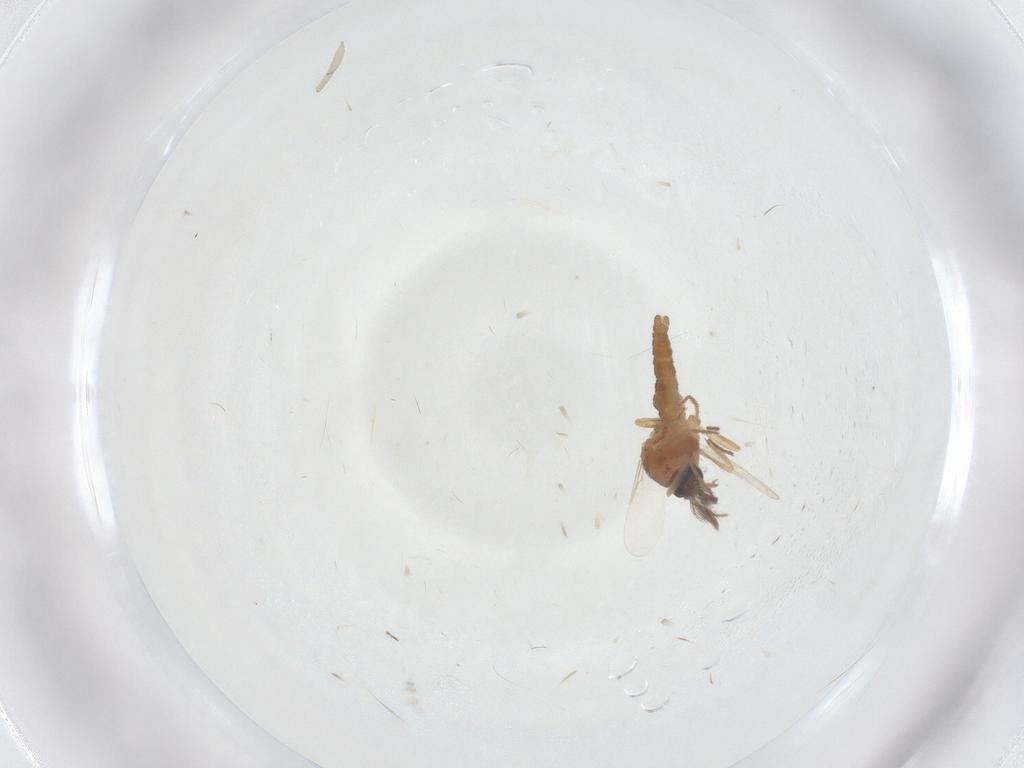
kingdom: Animalia
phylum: Arthropoda
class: Insecta
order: Diptera
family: Ceratopogonidae
